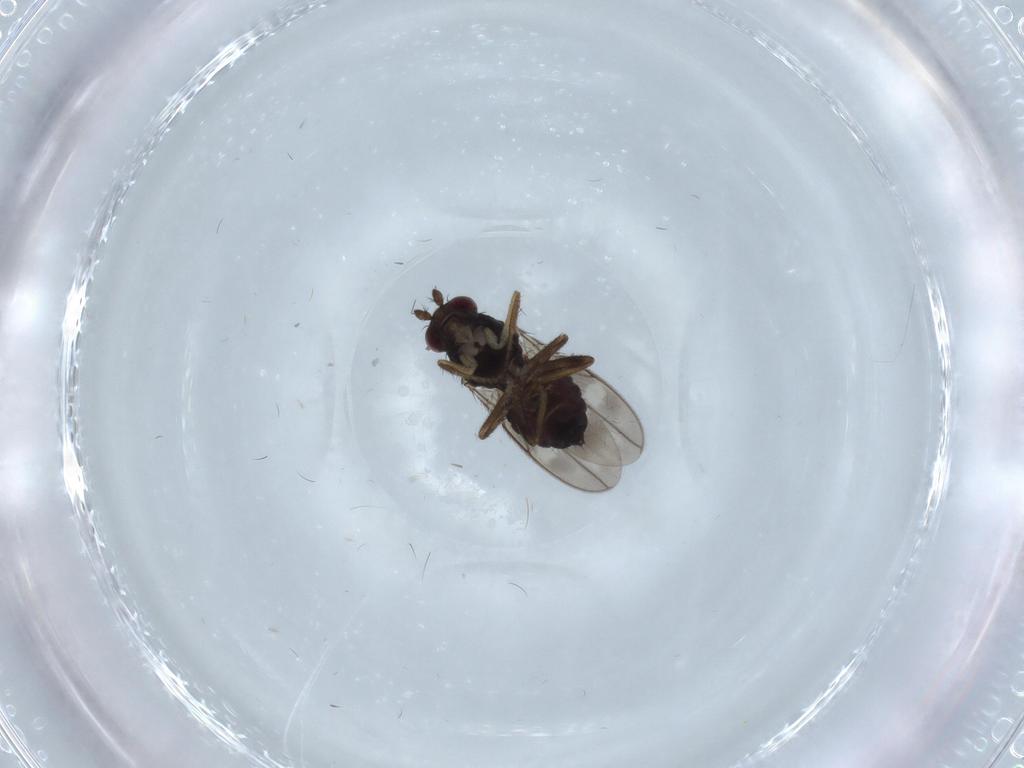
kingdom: Animalia
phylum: Arthropoda
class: Insecta
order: Diptera
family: Sphaeroceridae
